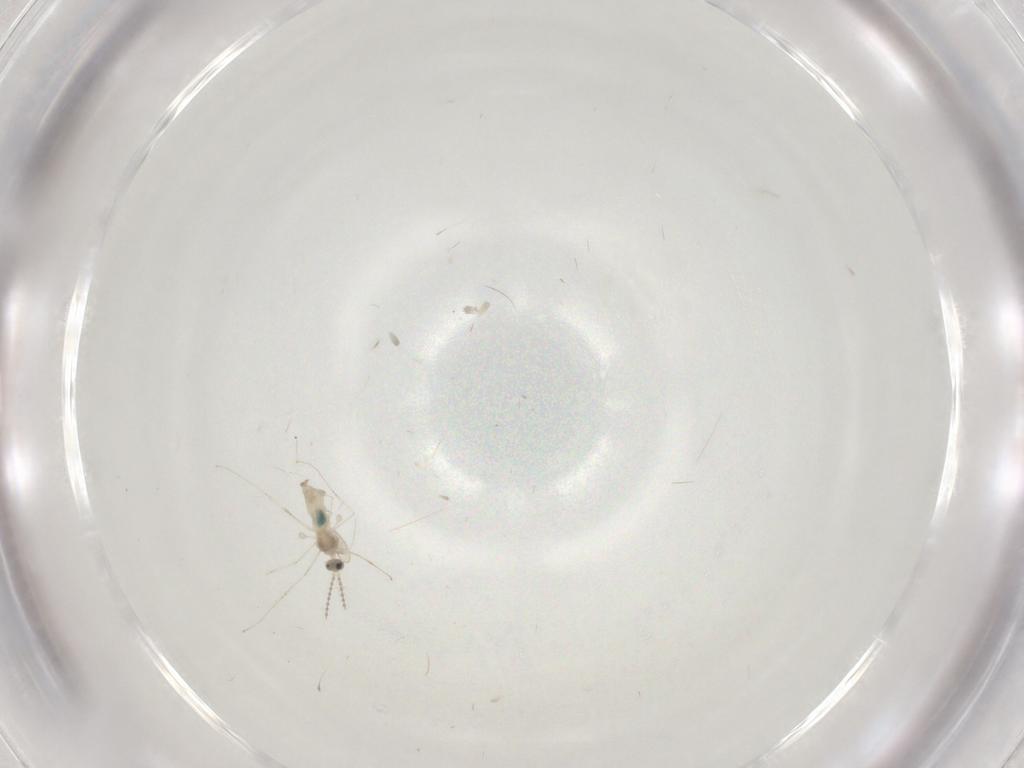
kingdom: Animalia
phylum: Arthropoda
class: Insecta
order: Diptera
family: Chironomidae
